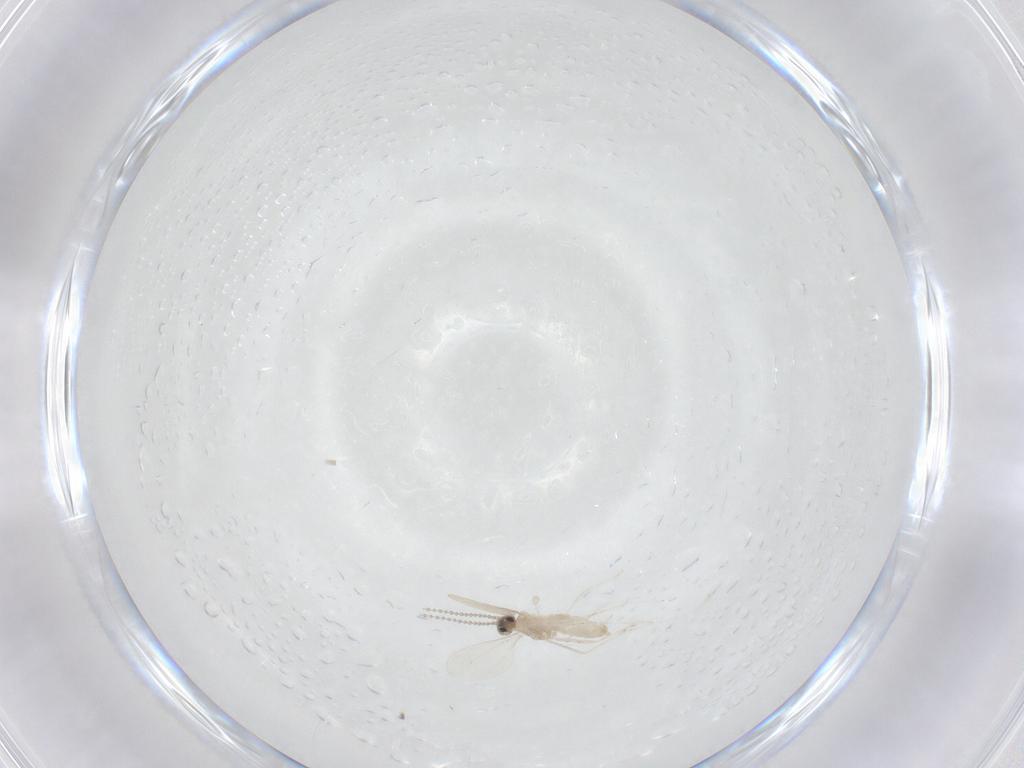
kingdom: Animalia
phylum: Arthropoda
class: Insecta
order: Diptera
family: Cecidomyiidae
